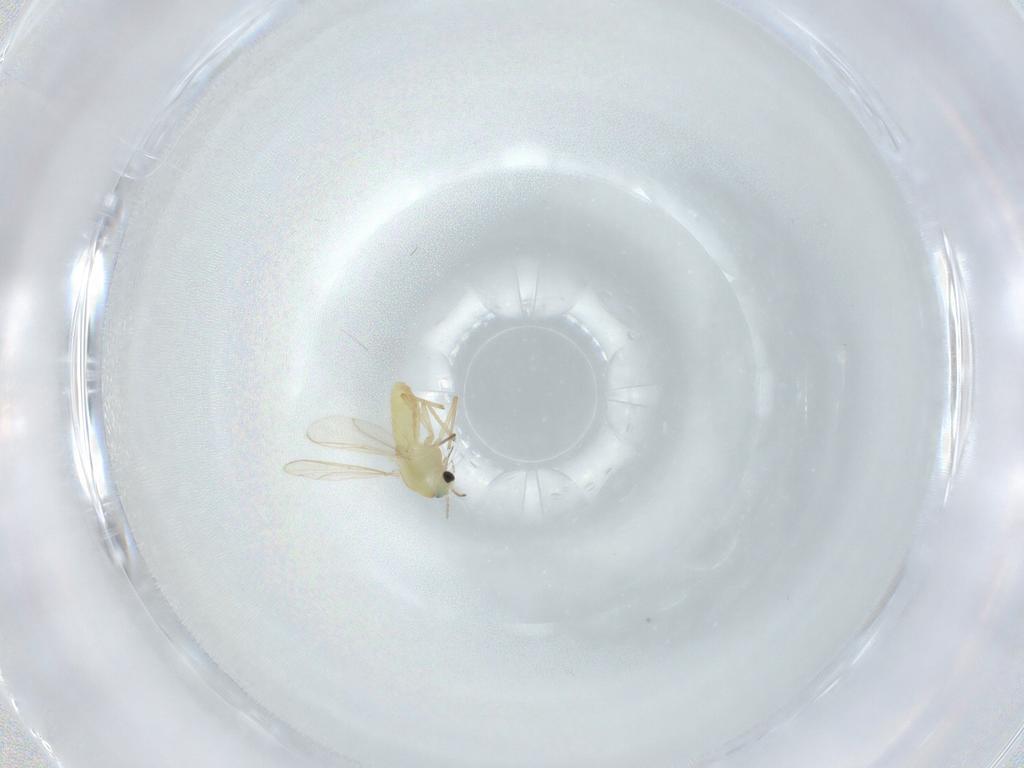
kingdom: Animalia
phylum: Arthropoda
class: Insecta
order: Diptera
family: Chironomidae
